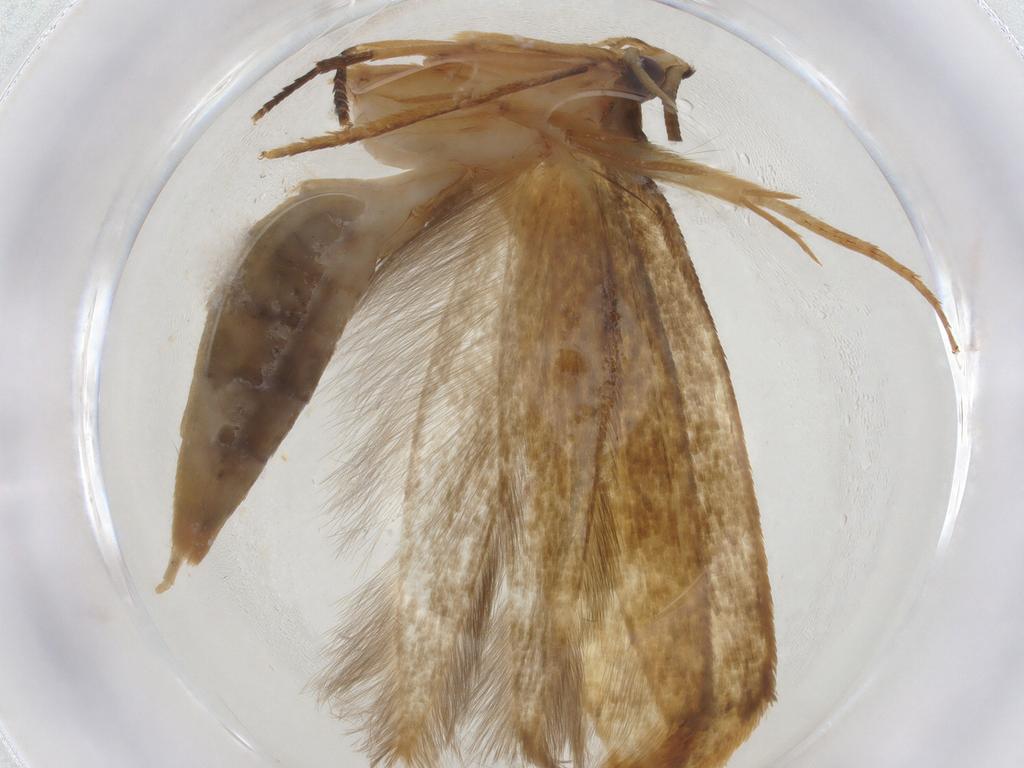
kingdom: Animalia
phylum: Arthropoda
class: Insecta
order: Lepidoptera
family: Tineidae
